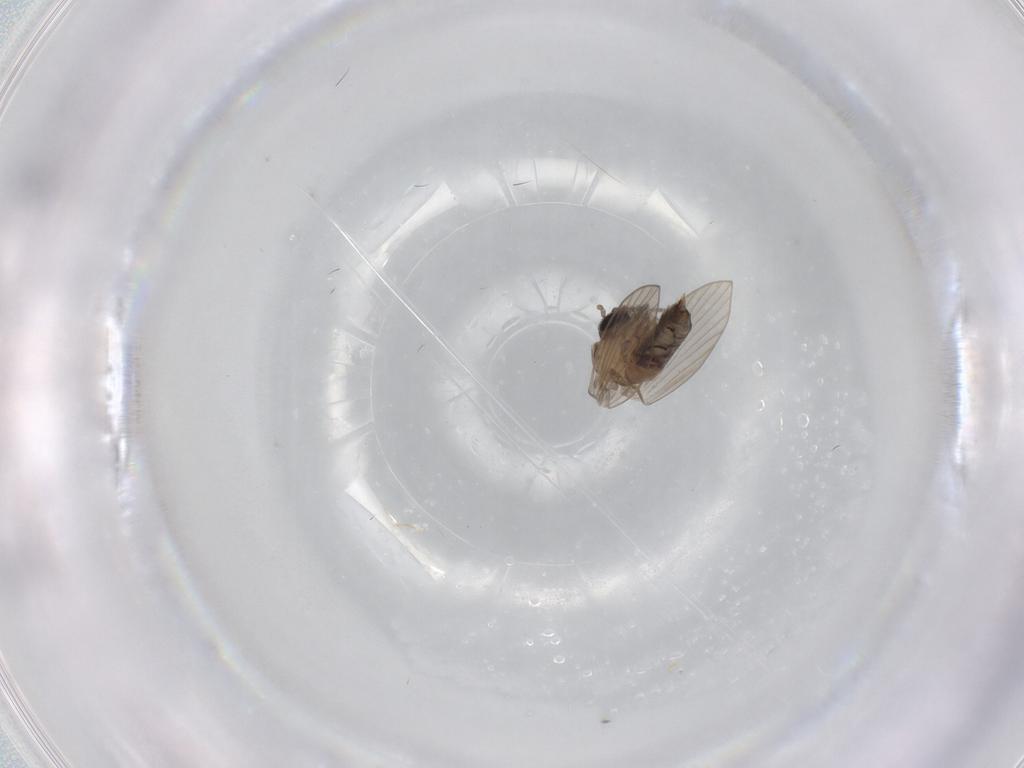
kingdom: Animalia
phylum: Arthropoda
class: Insecta
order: Diptera
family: Psychodidae
